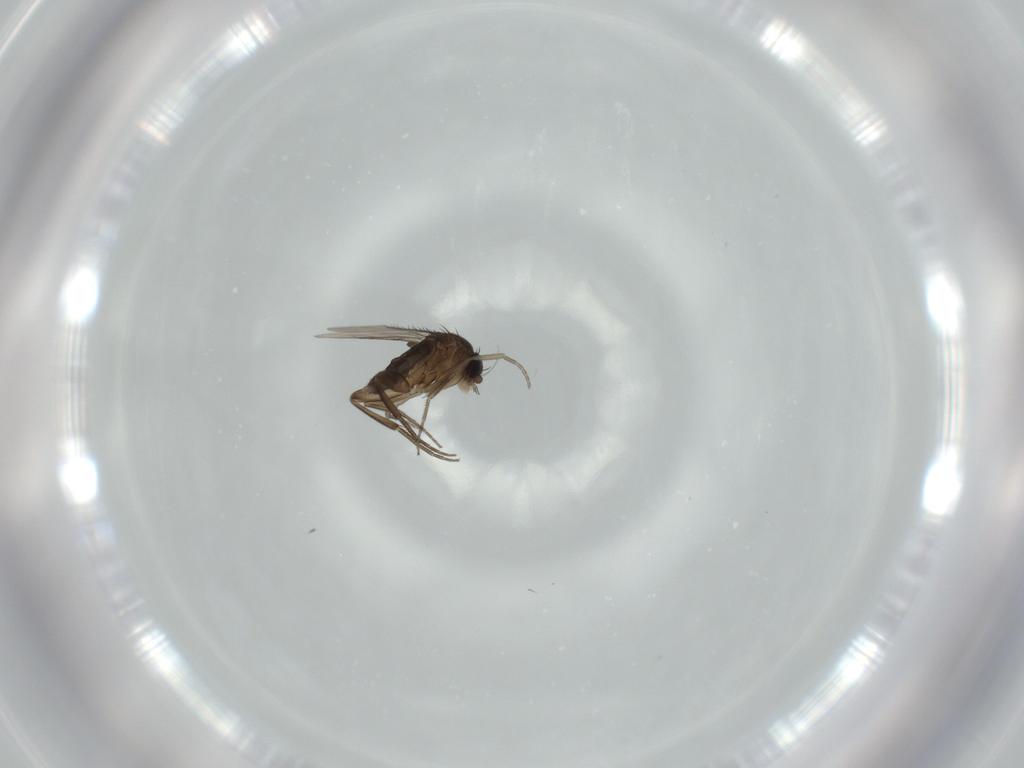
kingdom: Animalia
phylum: Arthropoda
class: Insecta
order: Diptera
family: Phoridae
